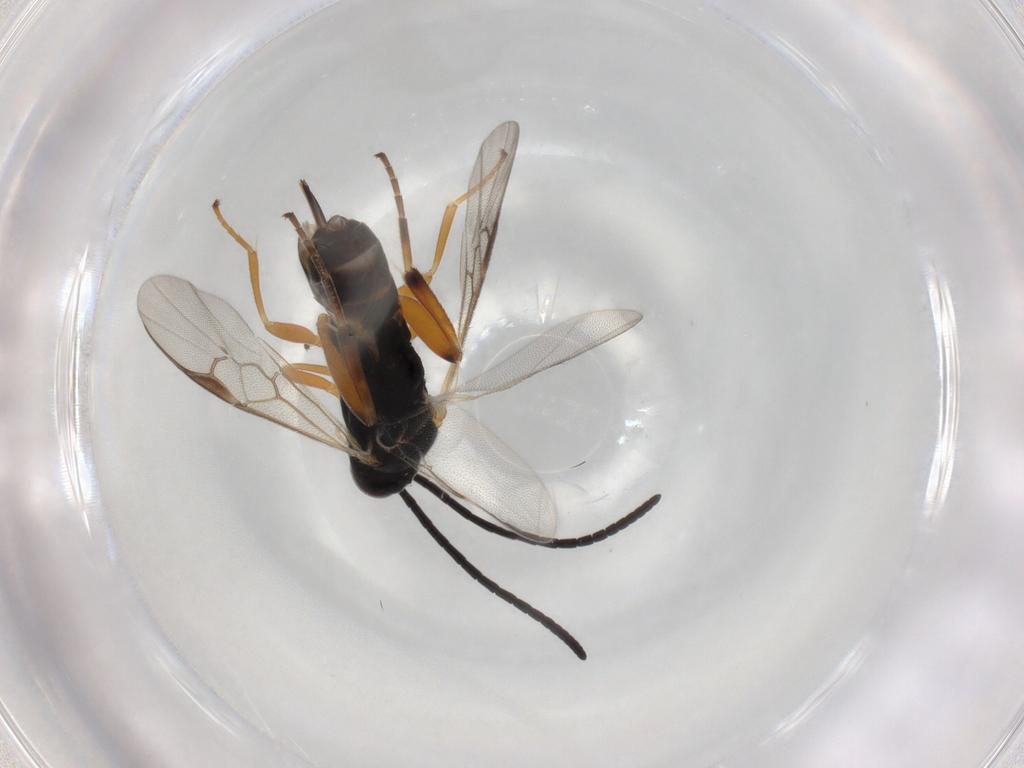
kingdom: Animalia
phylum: Arthropoda
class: Insecta
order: Hymenoptera
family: Braconidae
